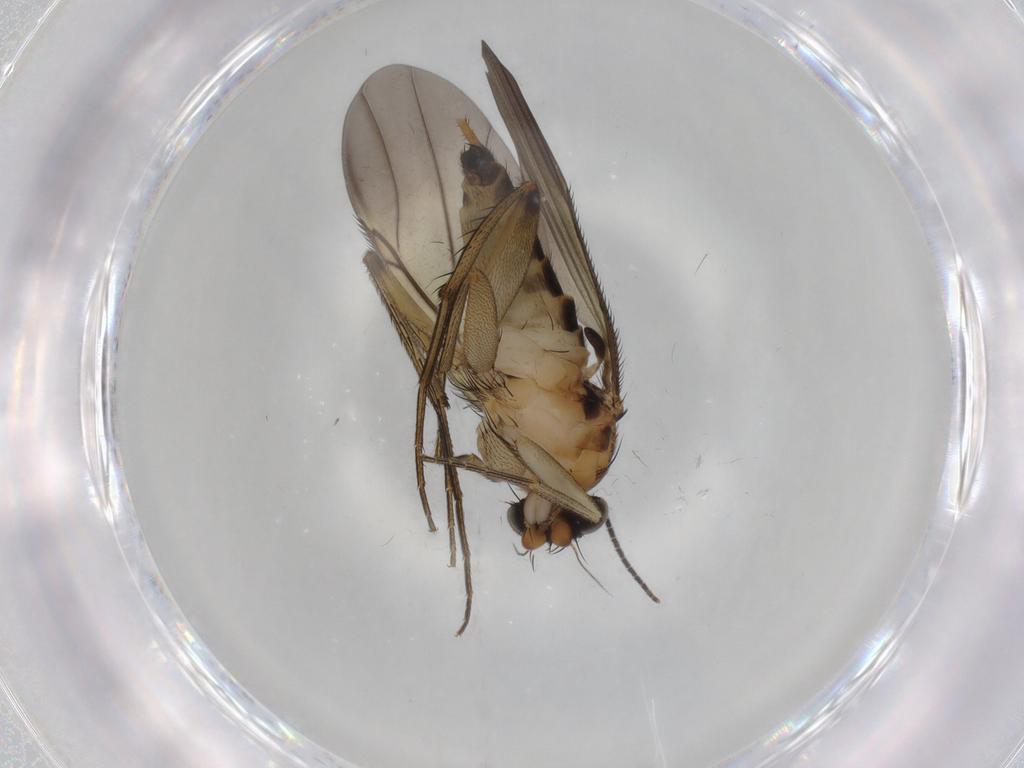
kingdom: Animalia
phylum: Arthropoda
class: Insecta
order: Diptera
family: Phoridae
